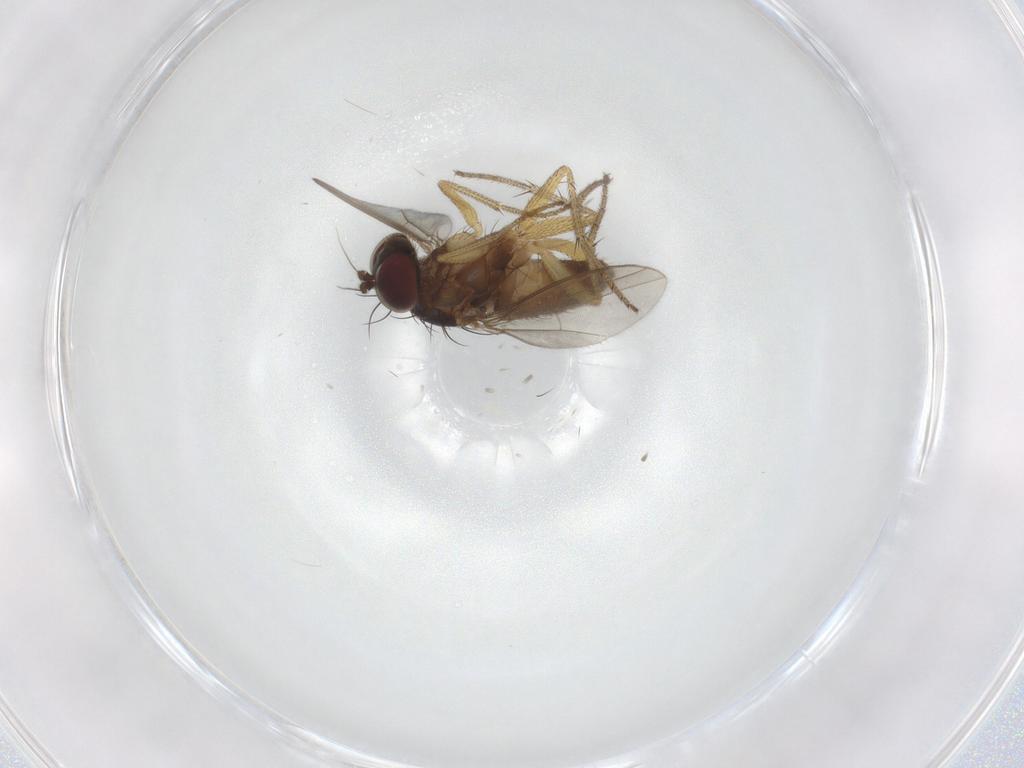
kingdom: Animalia
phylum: Arthropoda
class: Insecta
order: Diptera
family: Dolichopodidae
